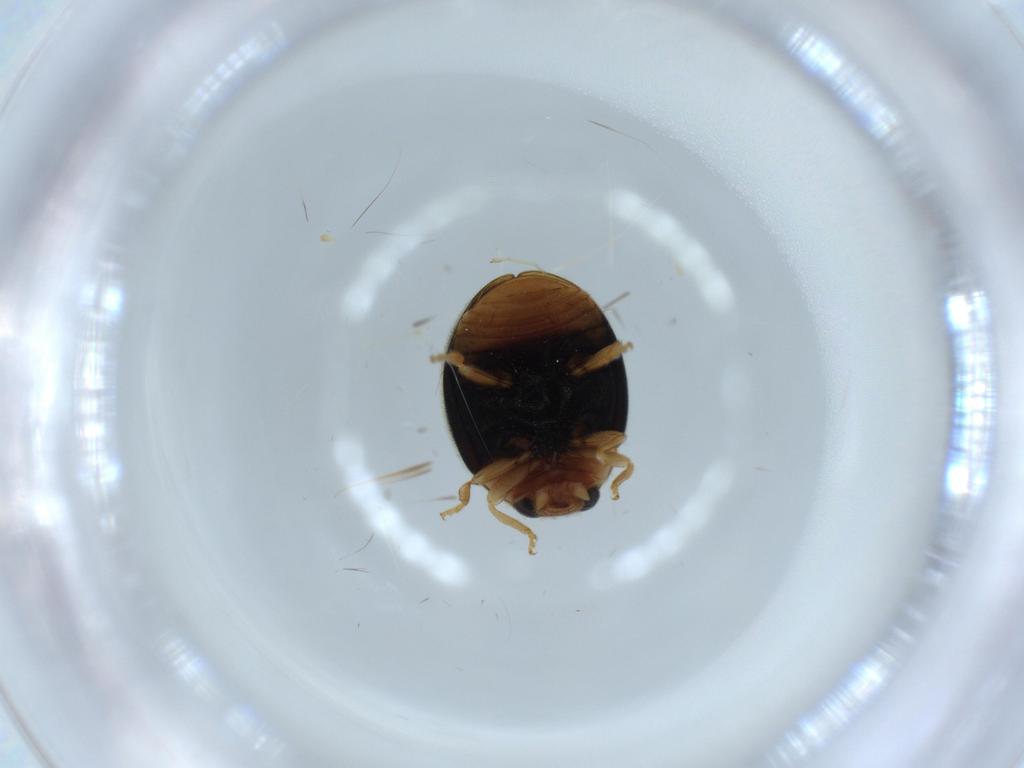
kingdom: Animalia
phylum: Arthropoda
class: Insecta
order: Coleoptera
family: Coccinellidae
